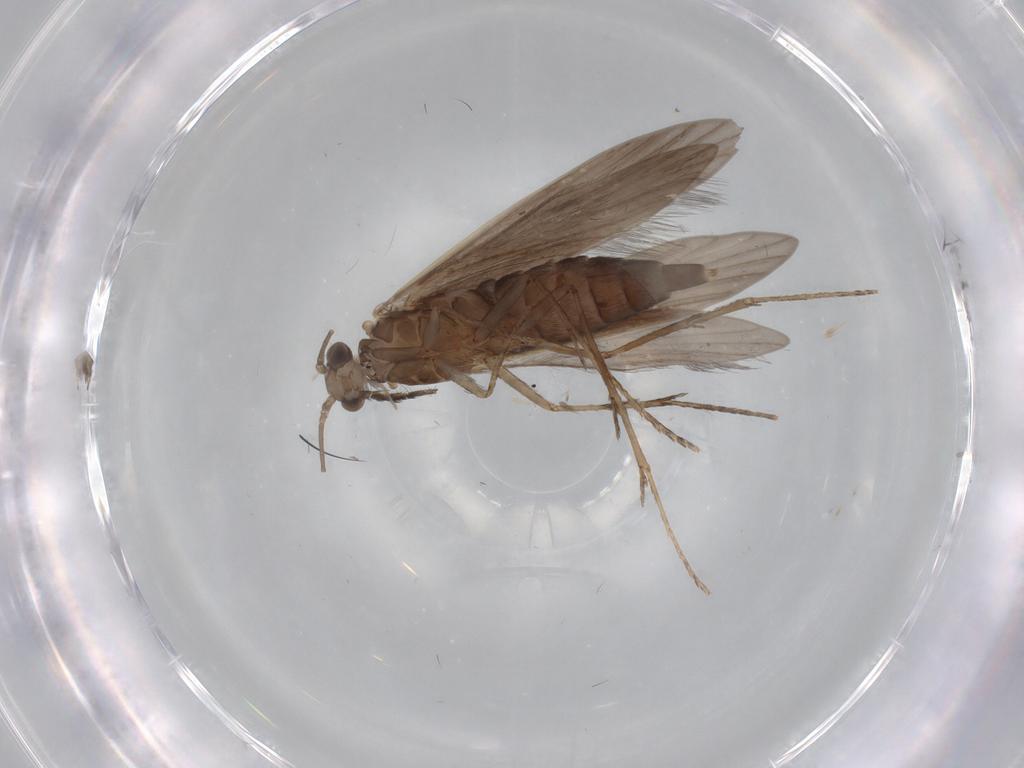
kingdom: Animalia
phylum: Arthropoda
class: Insecta
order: Trichoptera
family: Xiphocentronidae
